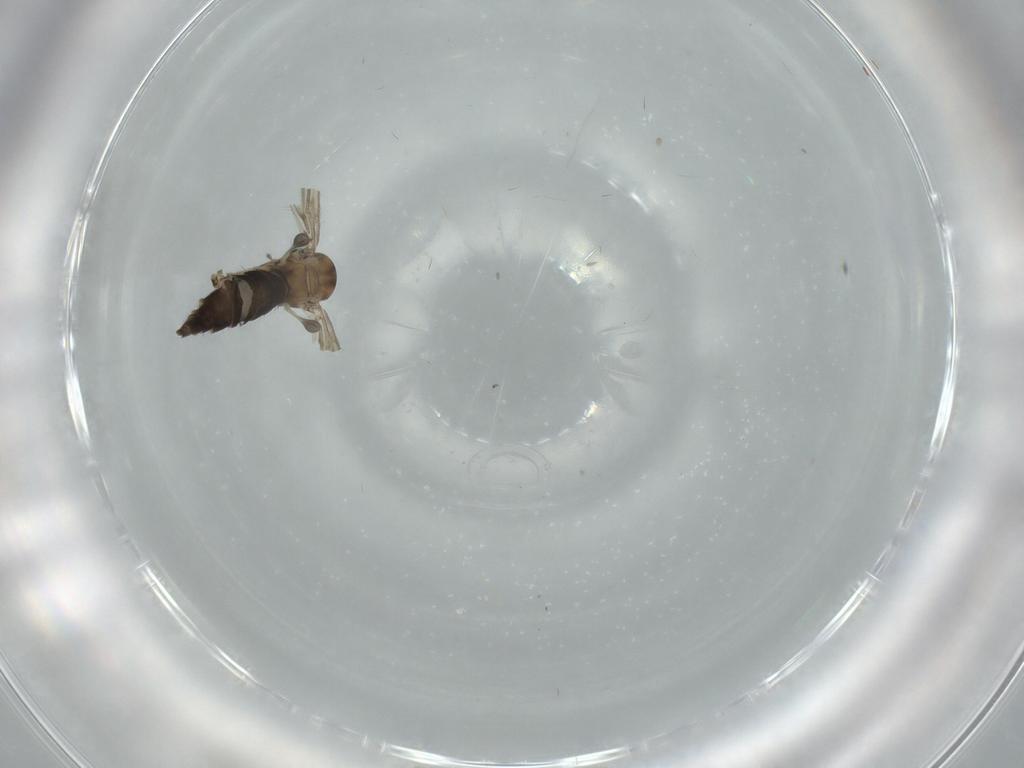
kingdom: Animalia
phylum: Arthropoda
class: Insecta
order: Diptera
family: Sciaridae
